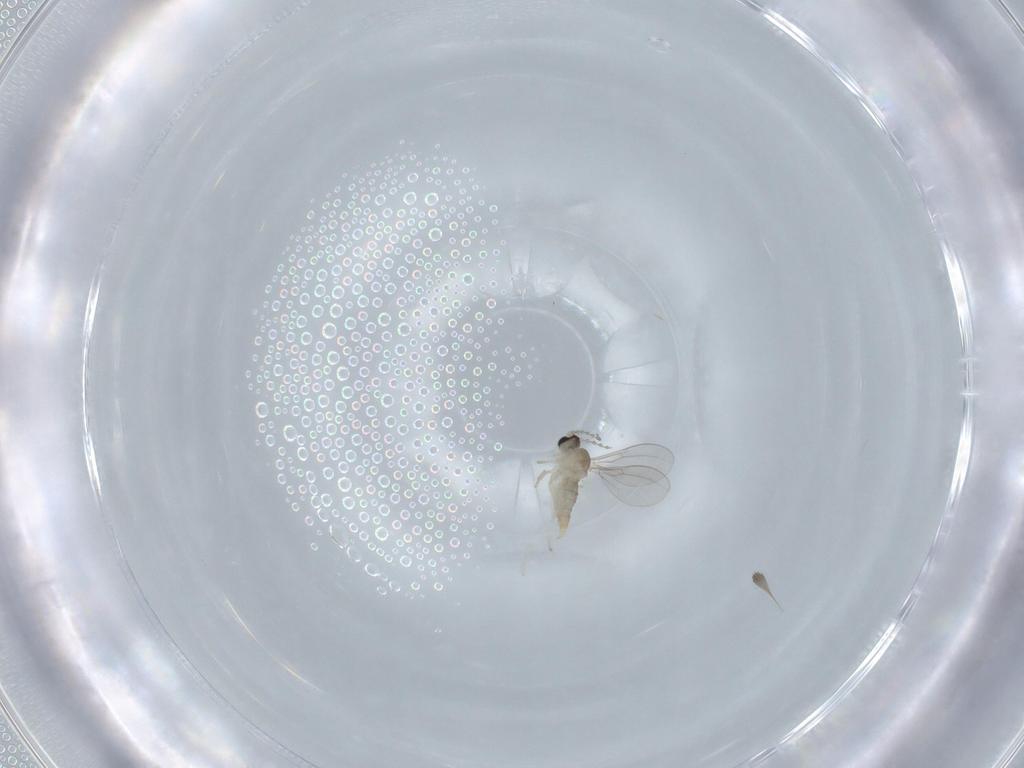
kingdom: Animalia
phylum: Arthropoda
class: Insecta
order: Diptera
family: Cecidomyiidae
